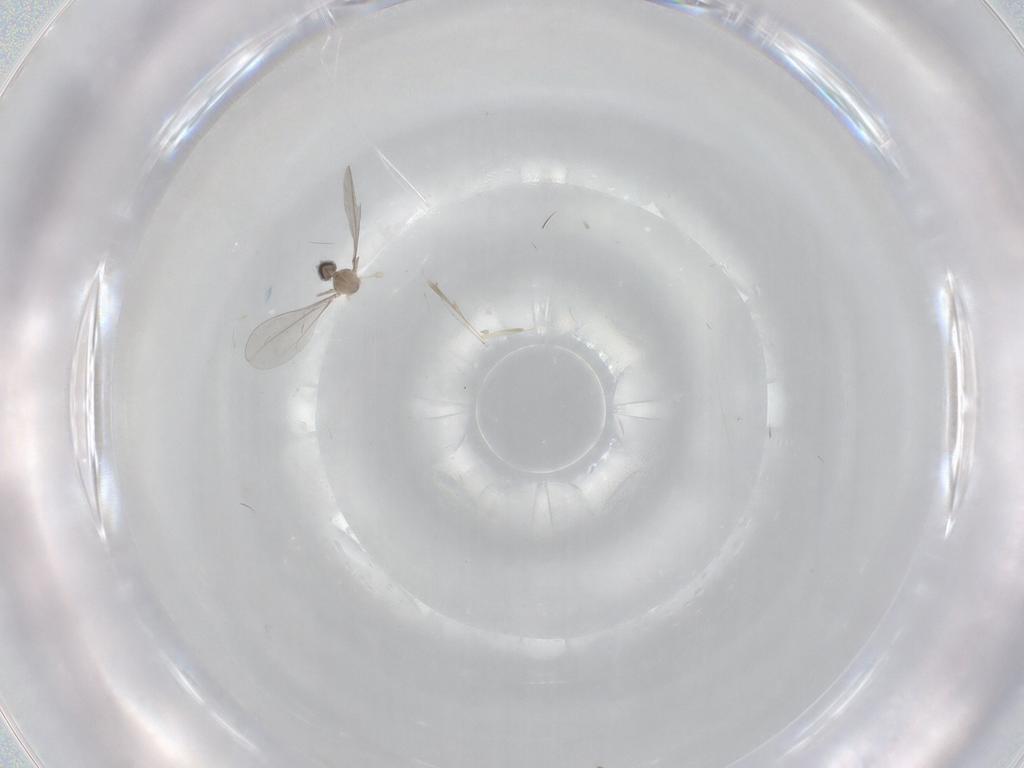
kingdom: Animalia
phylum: Arthropoda
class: Insecta
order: Diptera
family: Cecidomyiidae
